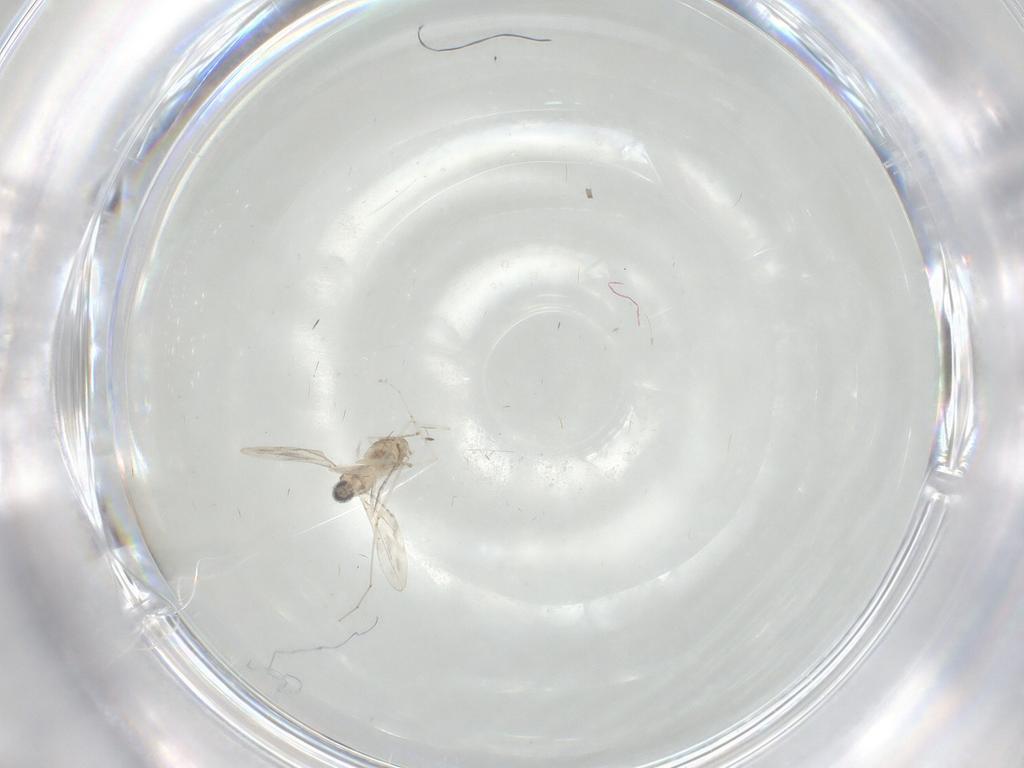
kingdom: Animalia
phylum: Arthropoda
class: Insecta
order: Diptera
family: Cecidomyiidae
